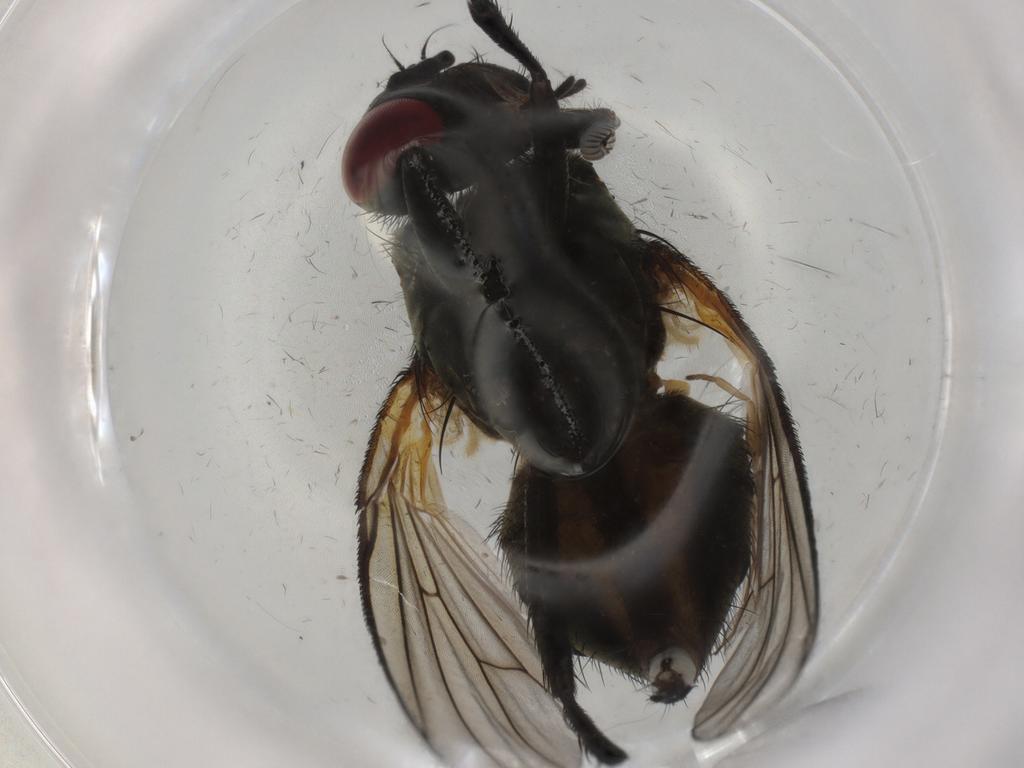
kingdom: Animalia
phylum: Arthropoda
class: Insecta
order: Diptera
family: Muscidae
